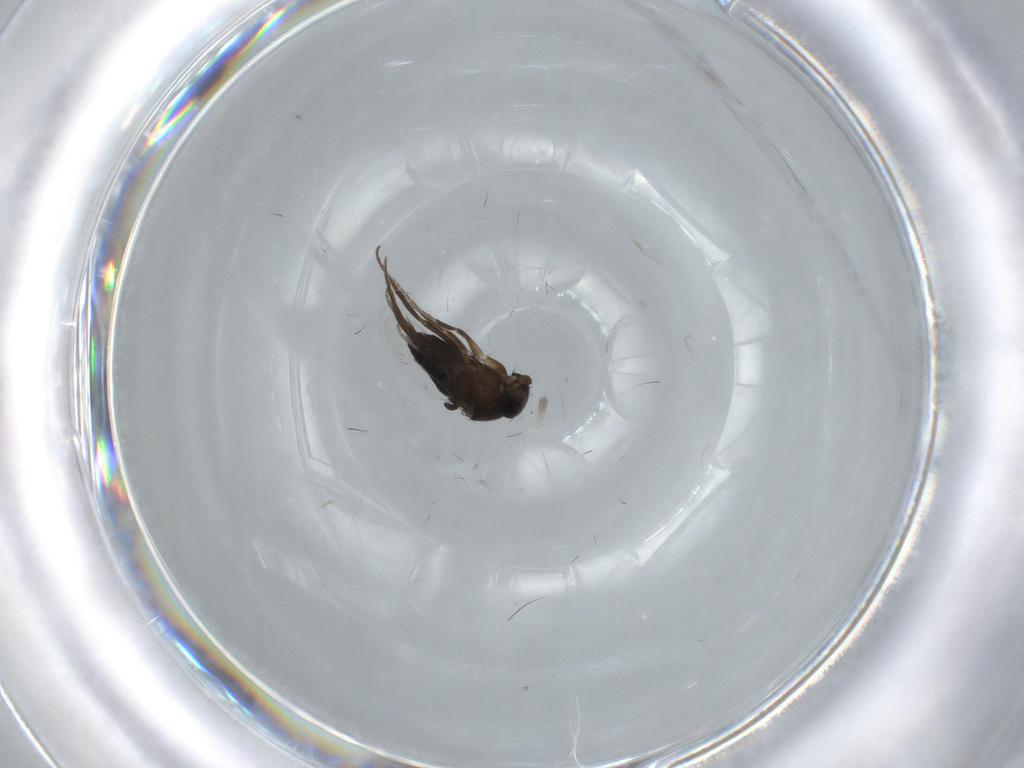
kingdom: Animalia
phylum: Arthropoda
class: Insecta
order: Diptera
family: Phoridae
